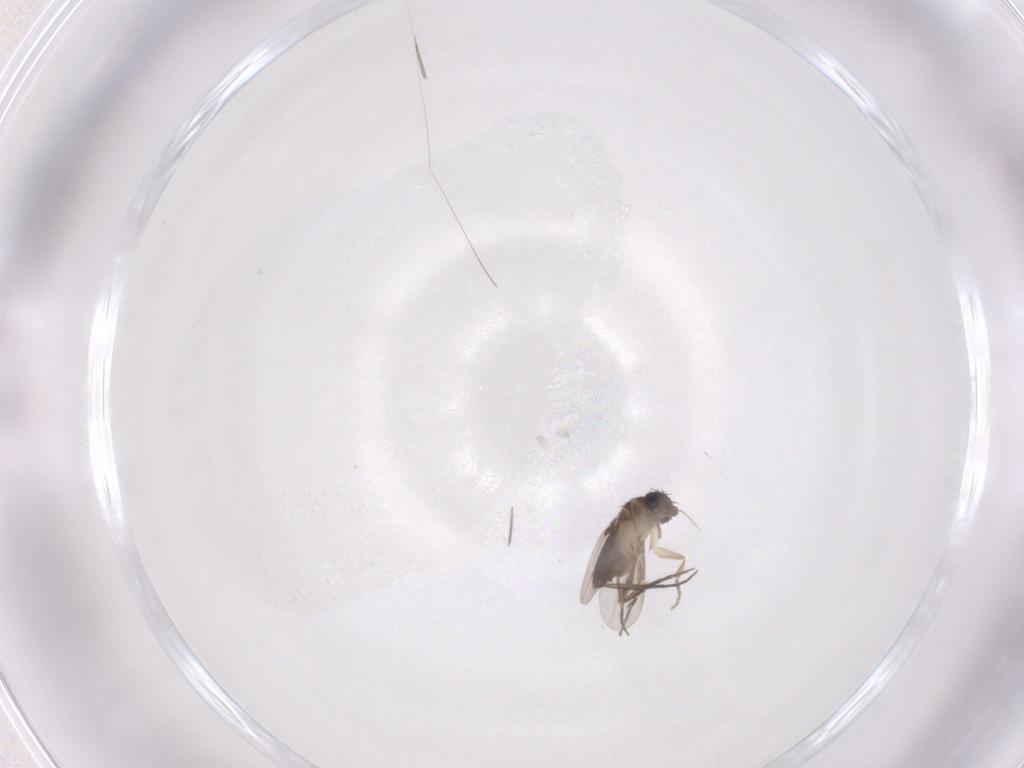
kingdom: Animalia
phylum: Arthropoda
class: Insecta
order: Diptera
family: Phoridae
